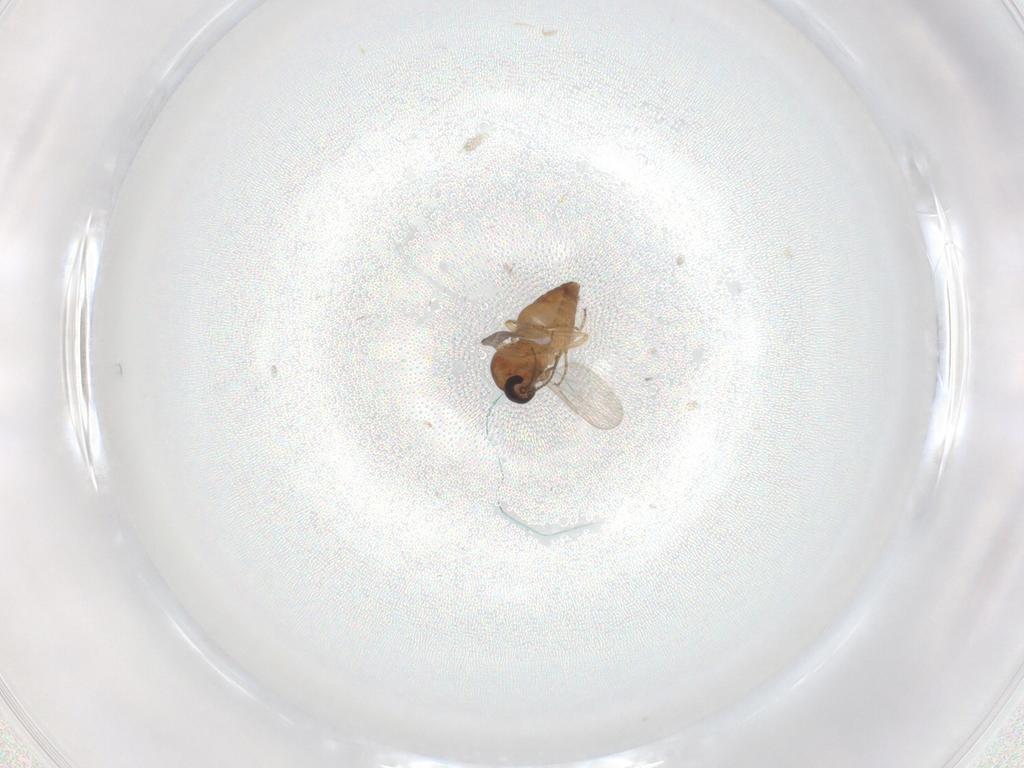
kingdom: Animalia
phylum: Arthropoda
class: Insecta
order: Diptera
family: Ceratopogonidae
